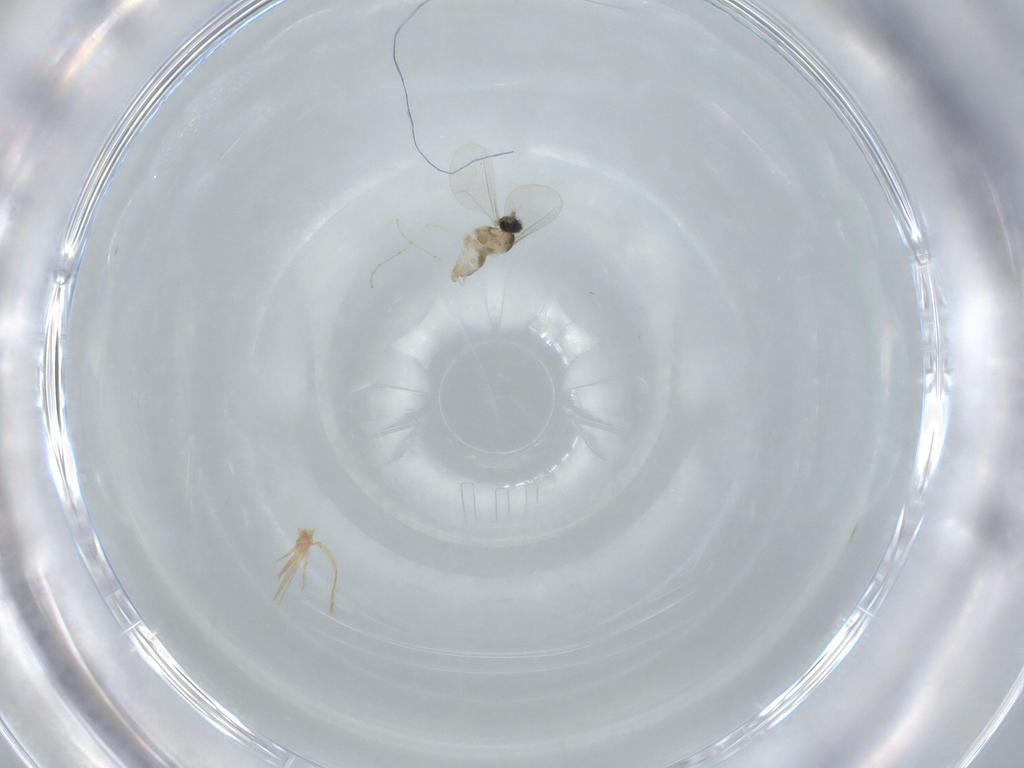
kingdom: Animalia
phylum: Arthropoda
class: Insecta
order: Diptera
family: Cecidomyiidae
